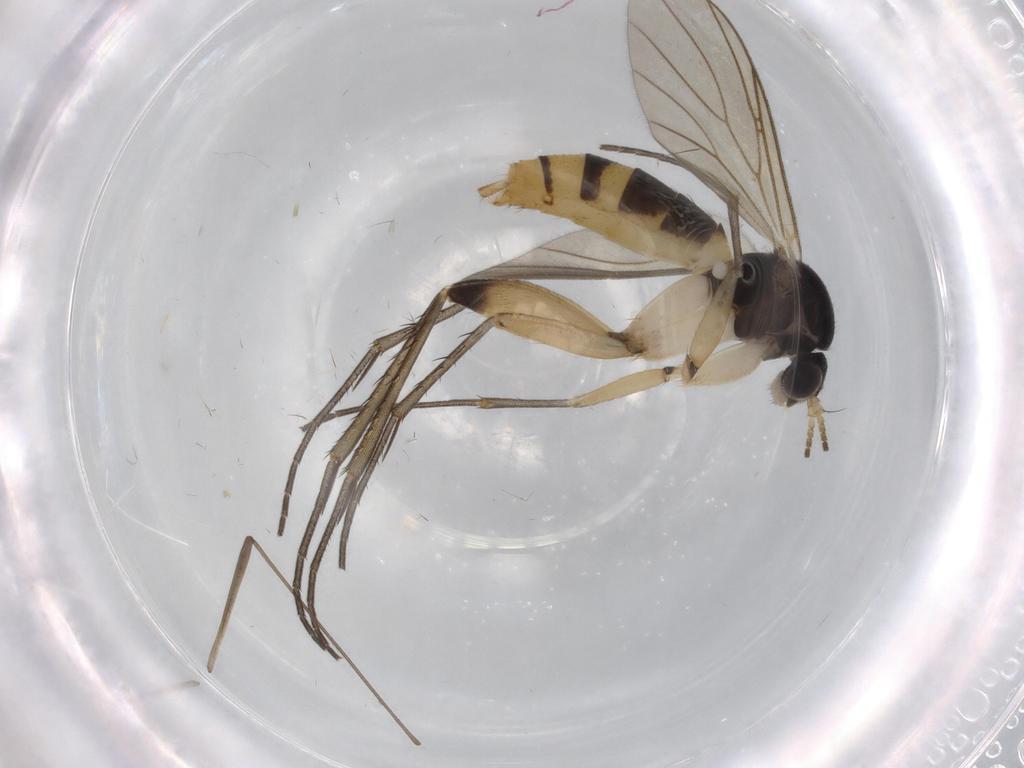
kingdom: Animalia
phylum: Arthropoda
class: Insecta
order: Diptera
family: Mycetophilidae
